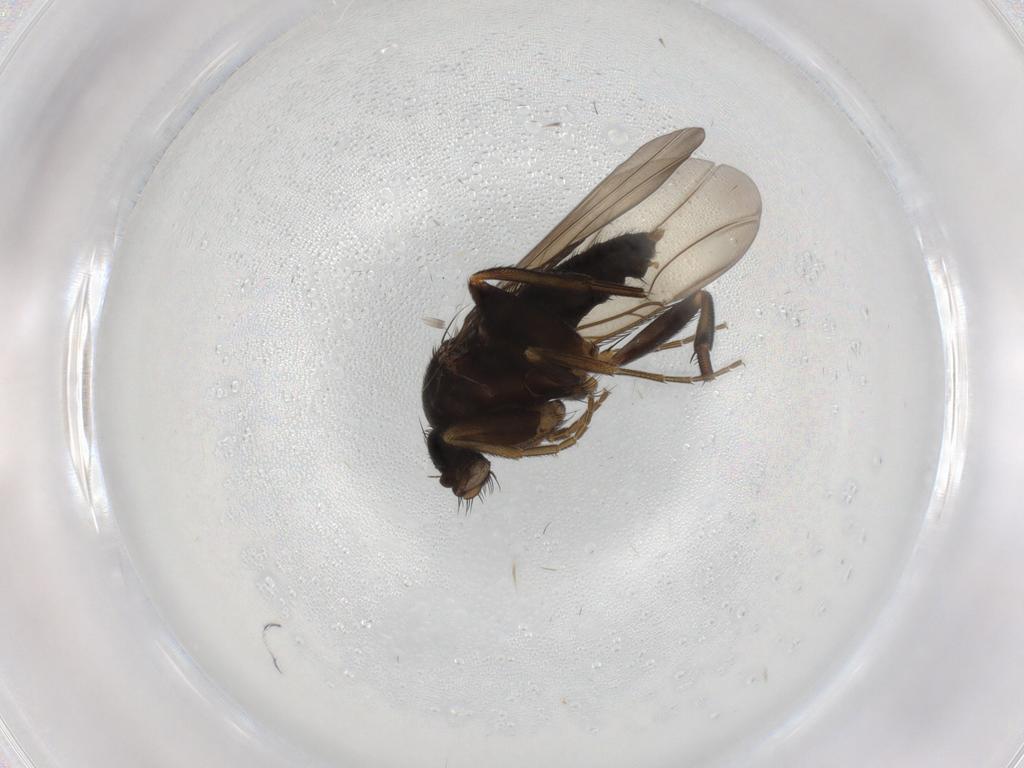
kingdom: Animalia
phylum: Arthropoda
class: Insecta
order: Diptera
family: Phoridae
